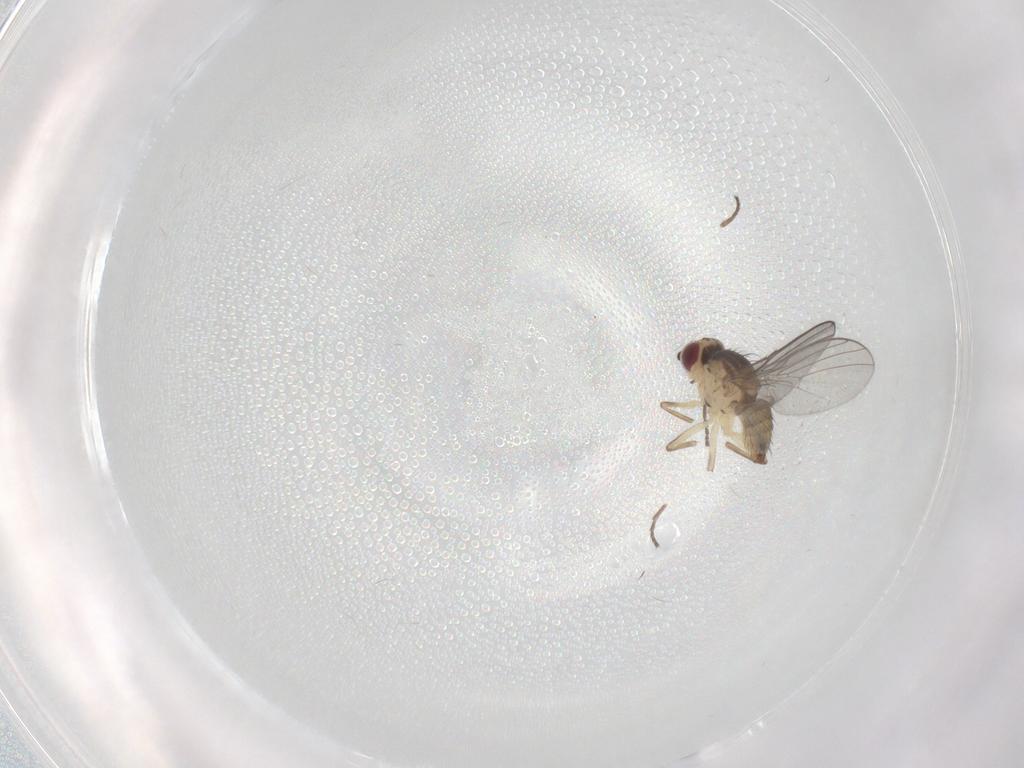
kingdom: Animalia
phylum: Arthropoda
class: Insecta
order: Diptera
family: Agromyzidae
